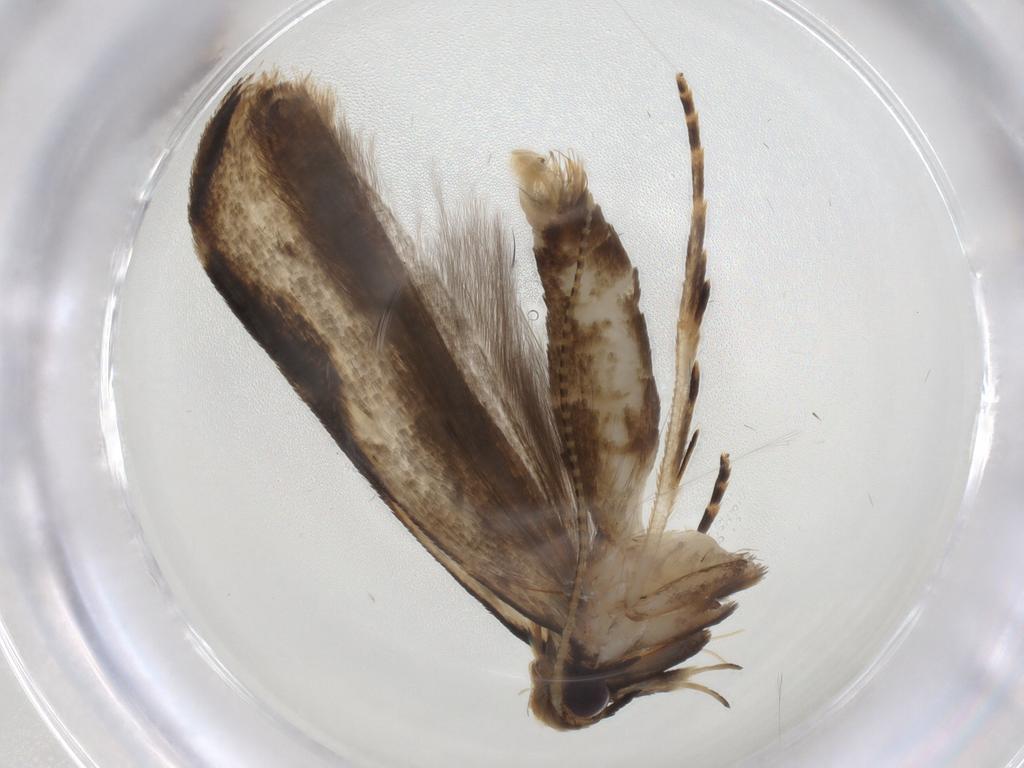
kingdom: Animalia
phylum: Arthropoda
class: Insecta
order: Lepidoptera
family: Gelechiidae
